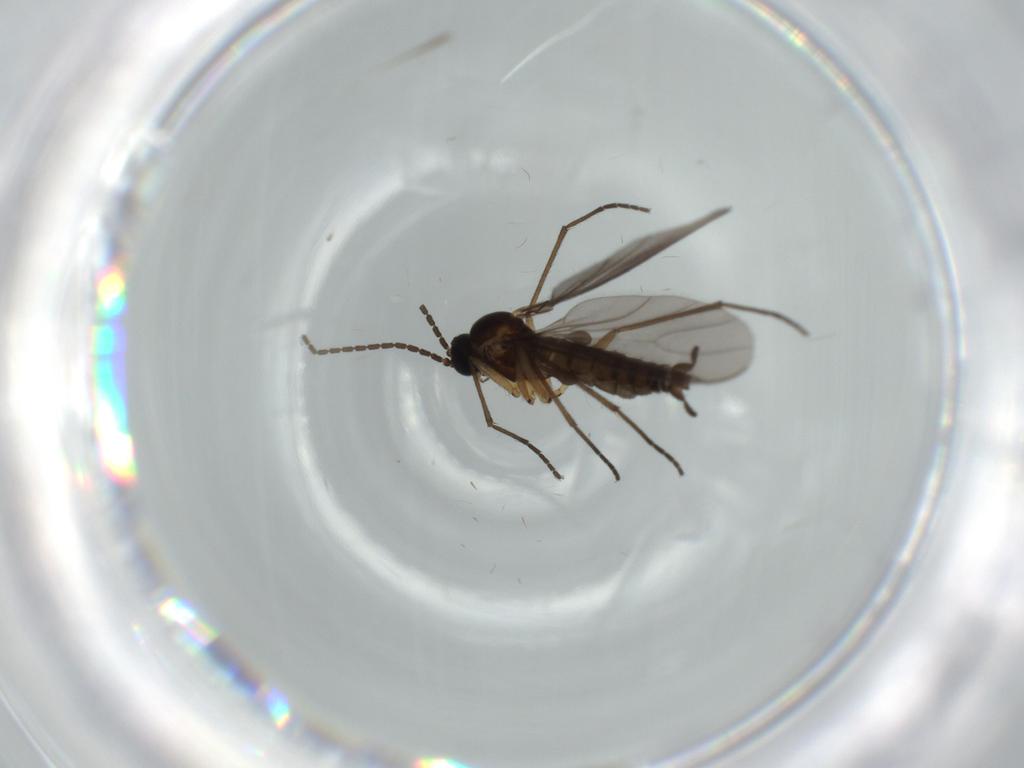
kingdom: Animalia
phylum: Arthropoda
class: Insecta
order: Diptera
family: Sciaridae
